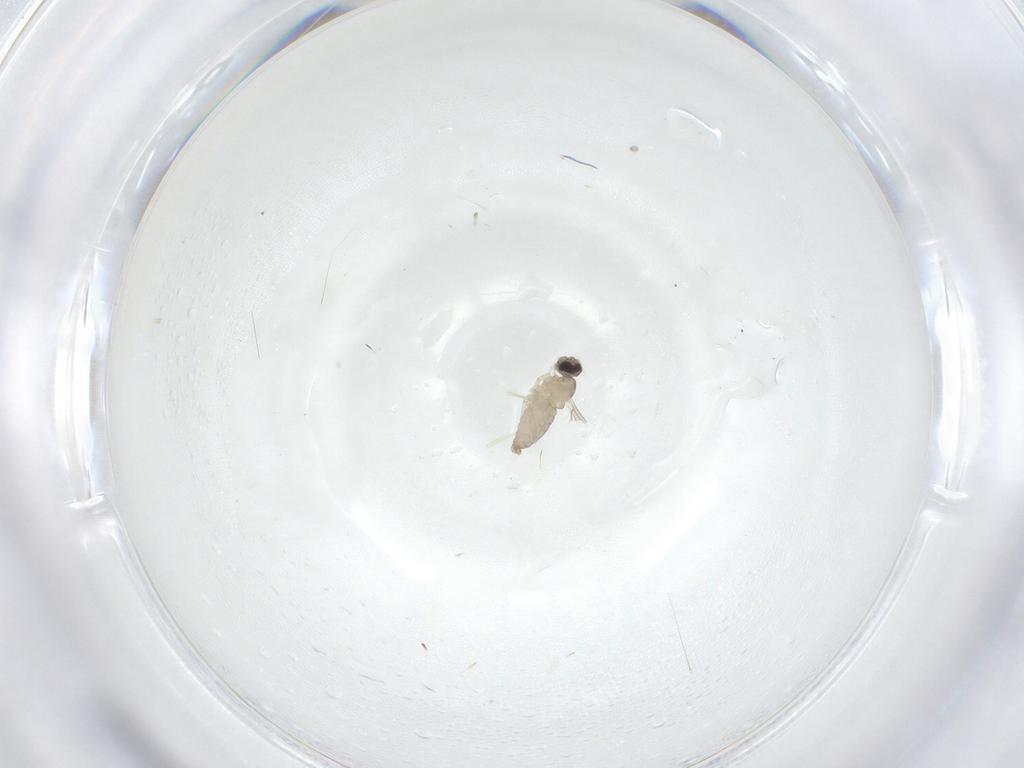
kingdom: Animalia
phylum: Arthropoda
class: Insecta
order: Diptera
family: Cecidomyiidae
